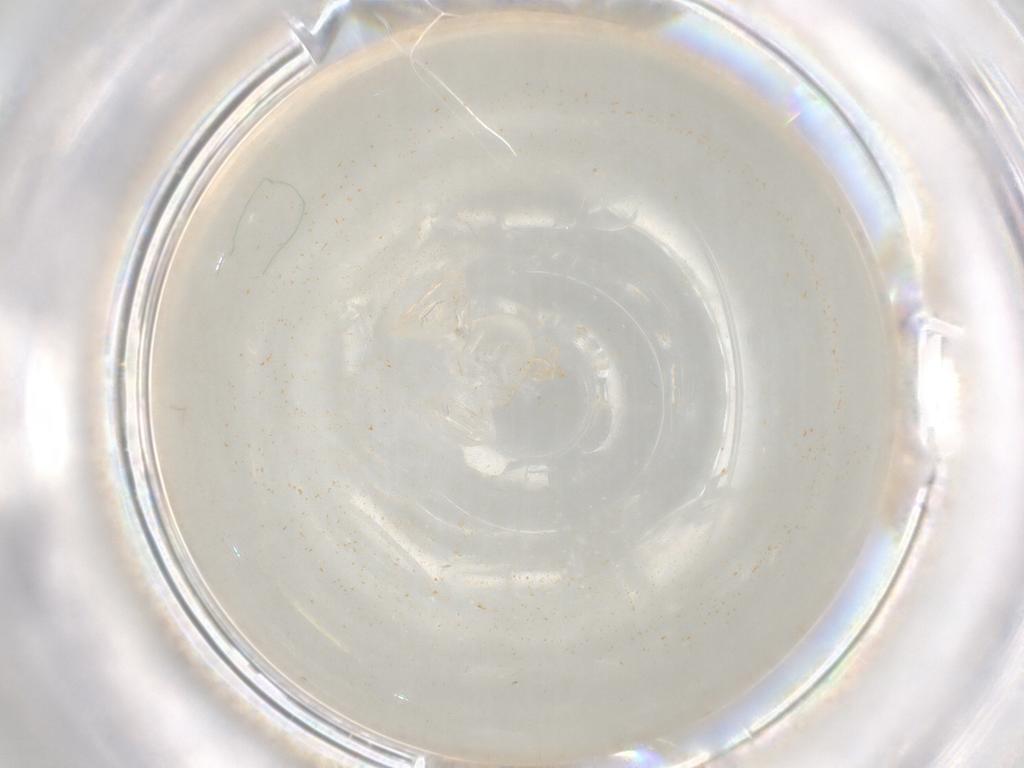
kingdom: Animalia
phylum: Arthropoda
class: Insecta
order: Diptera
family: Cecidomyiidae
